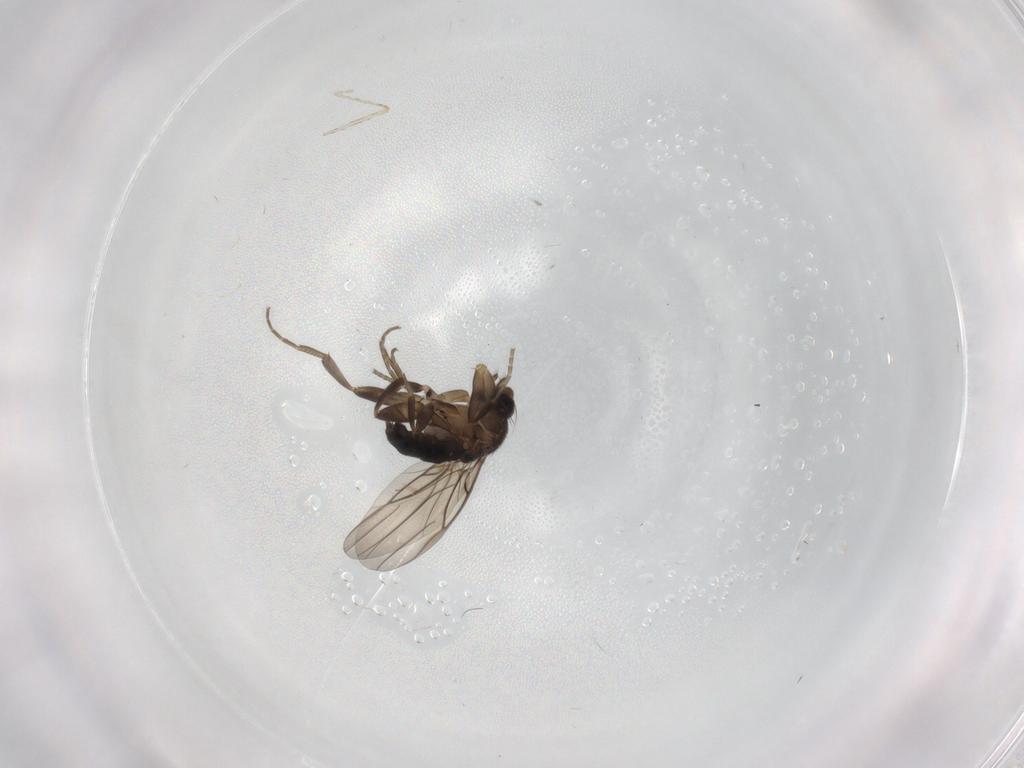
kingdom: Animalia
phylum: Arthropoda
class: Insecta
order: Diptera
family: Phoridae
